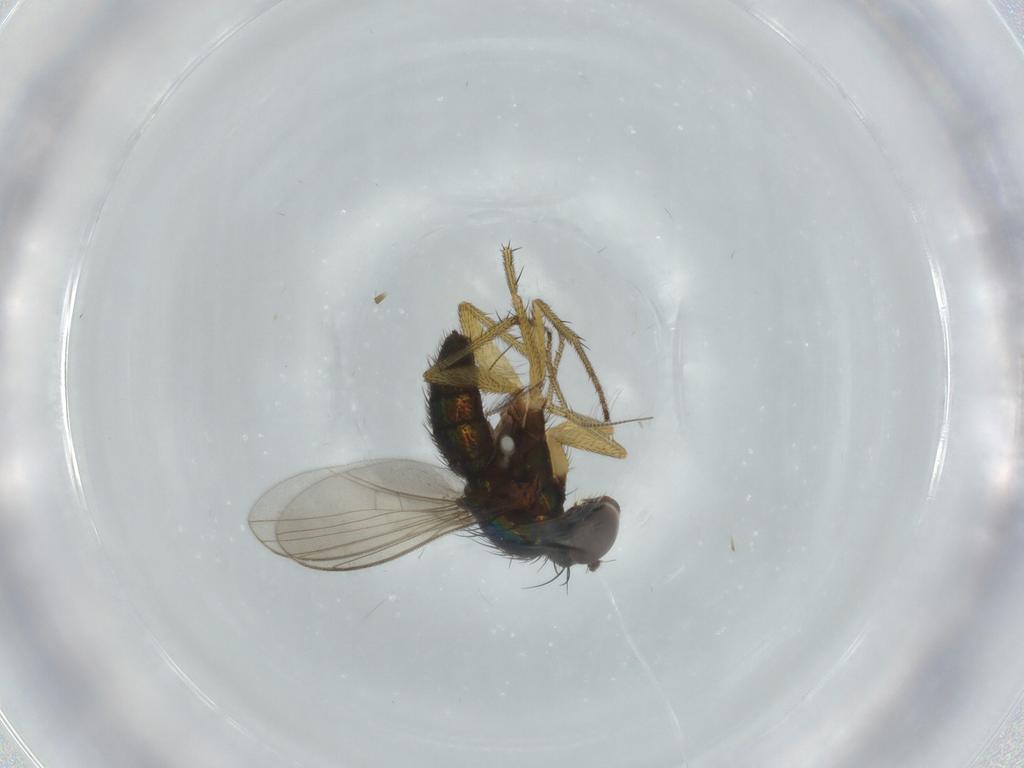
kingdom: Animalia
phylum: Arthropoda
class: Insecta
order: Diptera
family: Dolichopodidae
